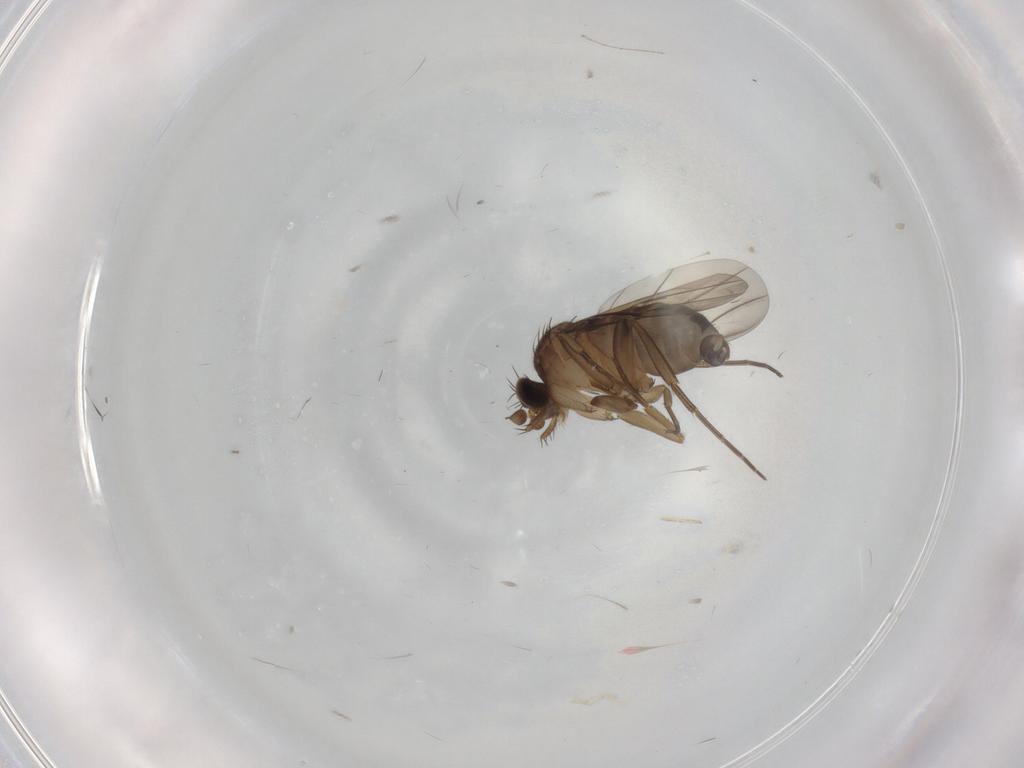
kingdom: Animalia
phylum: Arthropoda
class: Insecta
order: Diptera
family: Phoridae
